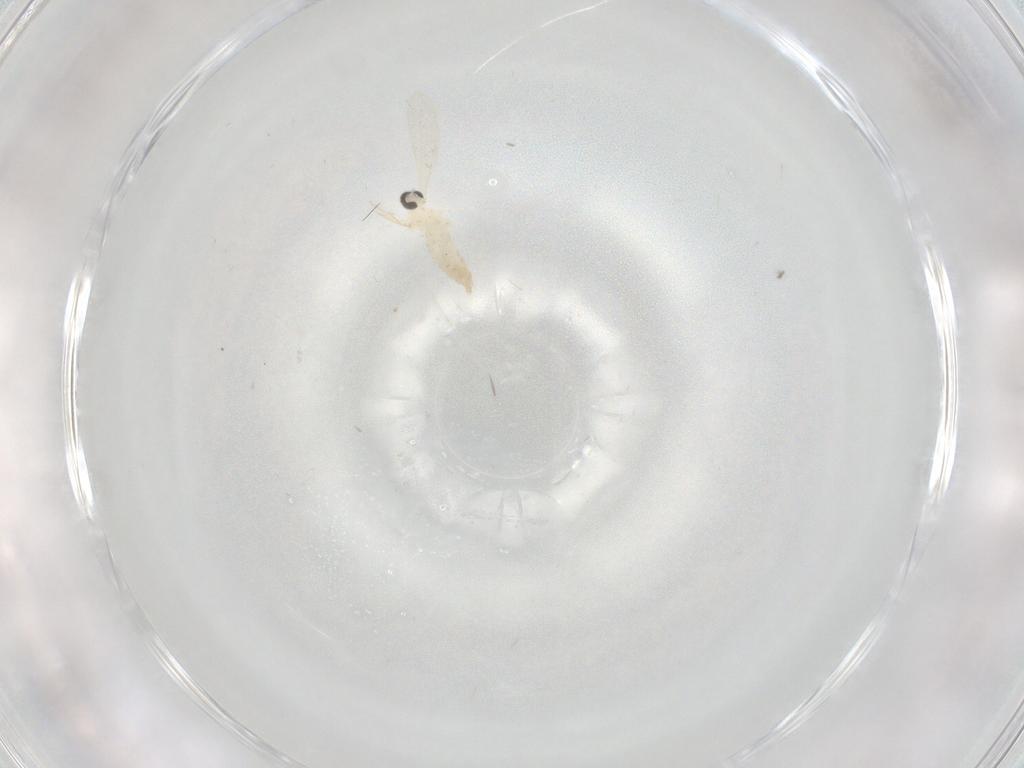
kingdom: Animalia
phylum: Arthropoda
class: Insecta
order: Diptera
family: Cecidomyiidae
